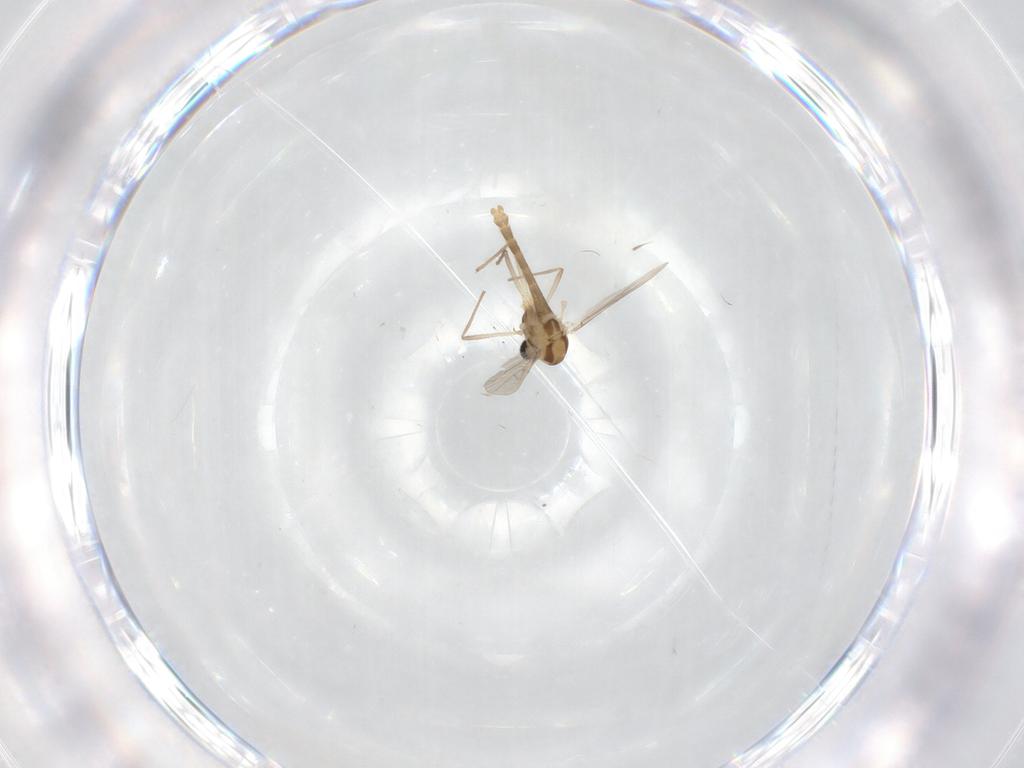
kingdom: Animalia
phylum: Arthropoda
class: Insecta
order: Diptera
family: Chironomidae
